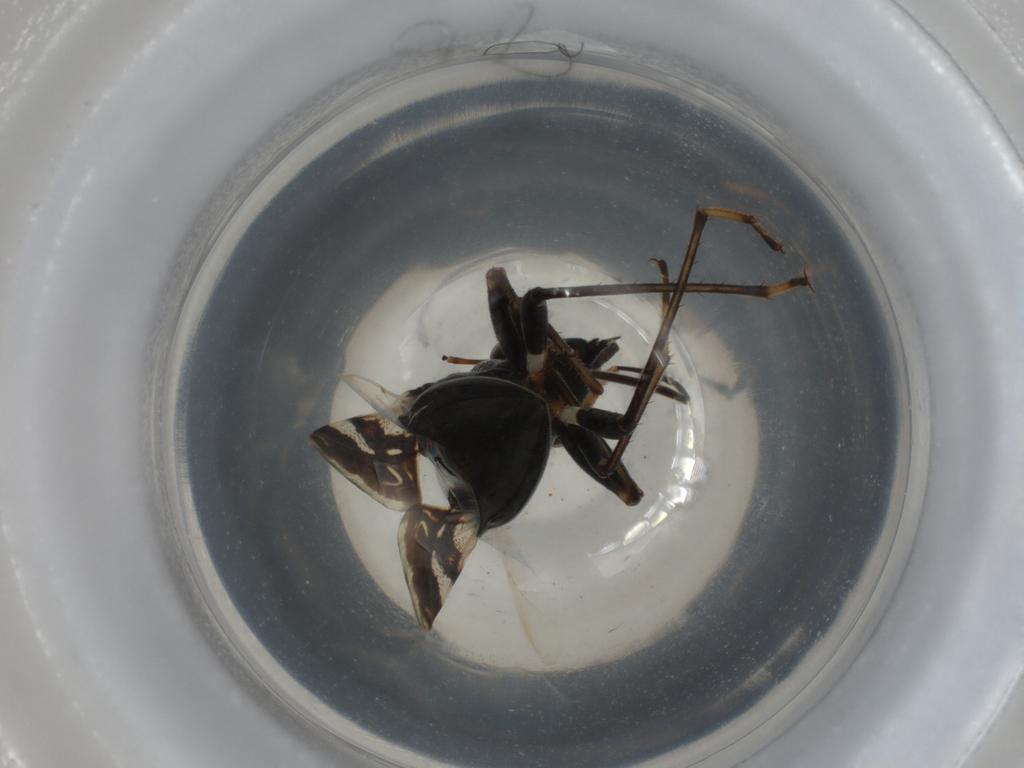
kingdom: Animalia
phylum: Arthropoda
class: Insecta
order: Hemiptera
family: Rhyparochromidae
